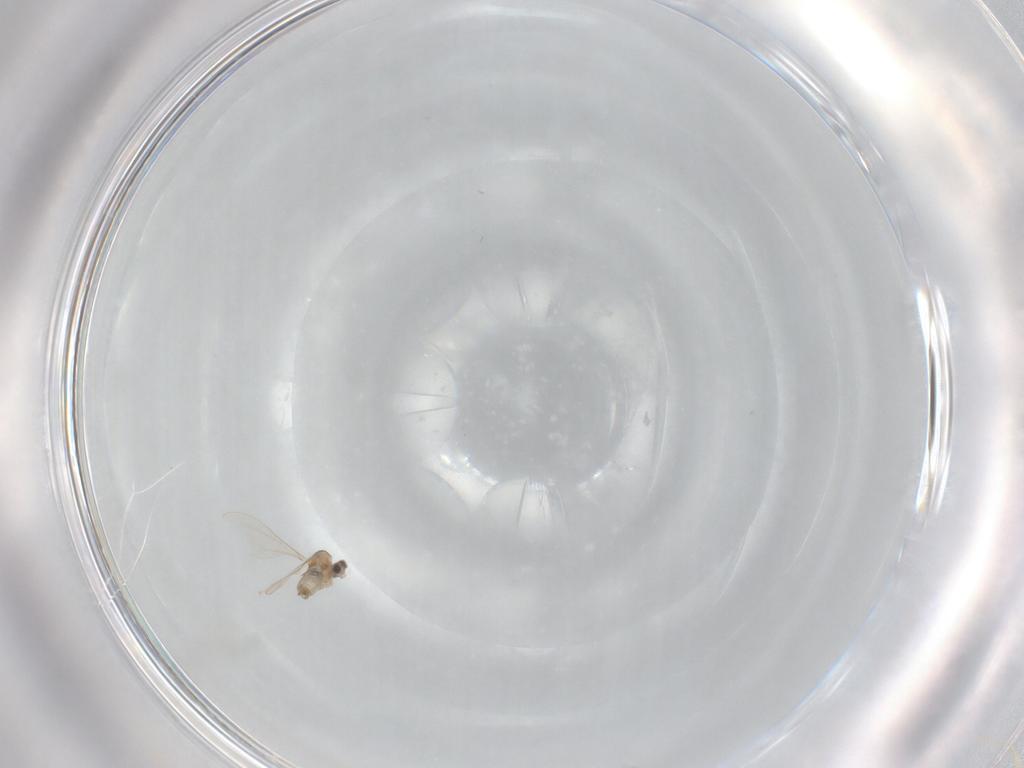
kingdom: Animalia
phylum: Arthropoda
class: Insecta
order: Diptera
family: Cecidomyiidae
